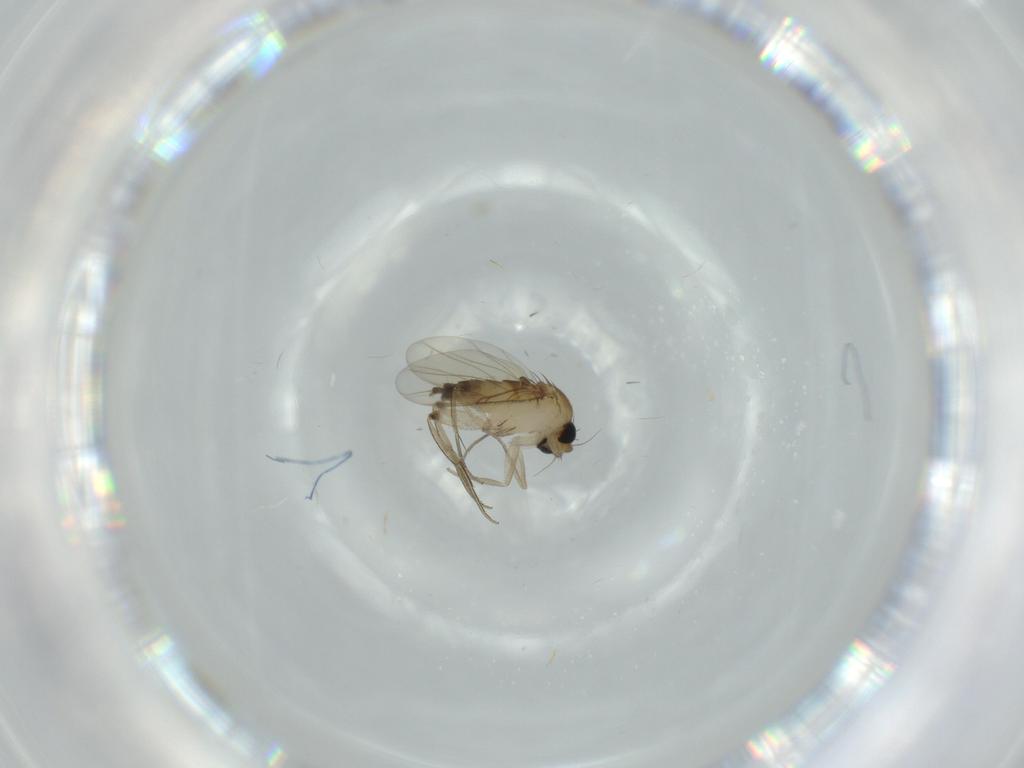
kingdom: Animalia
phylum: Arthropoda
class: Insecta
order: Diptera
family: Phoridae
